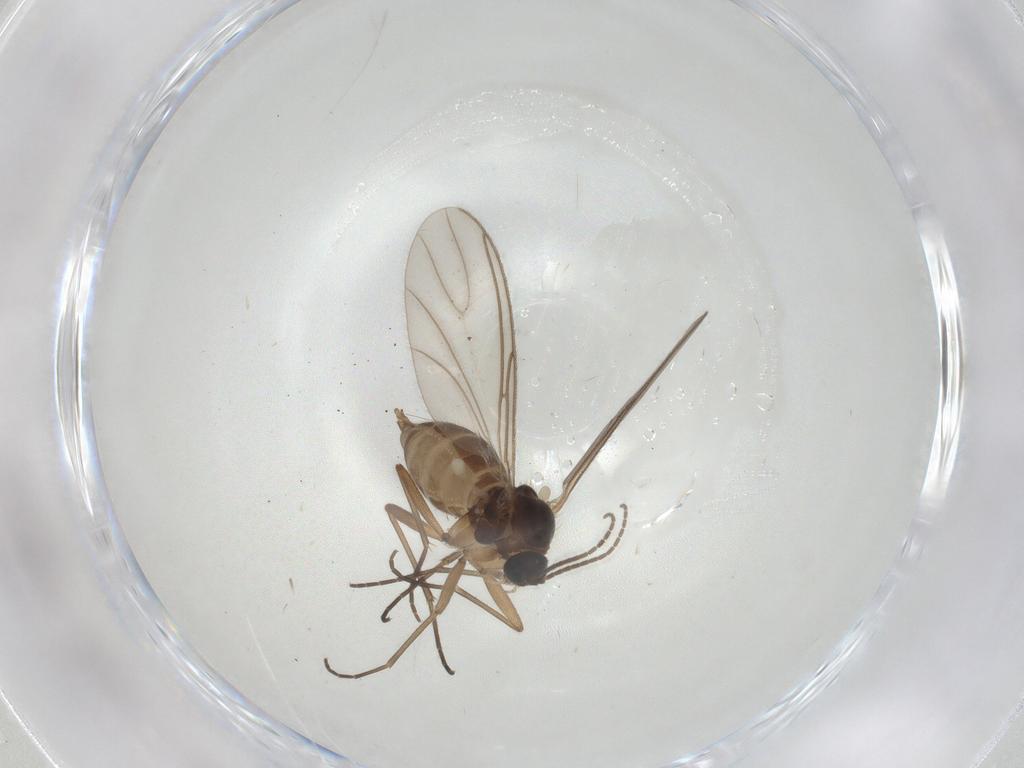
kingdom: Animalia
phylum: Arthropoda
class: Insecta
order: Diptera
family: Sciaridae
